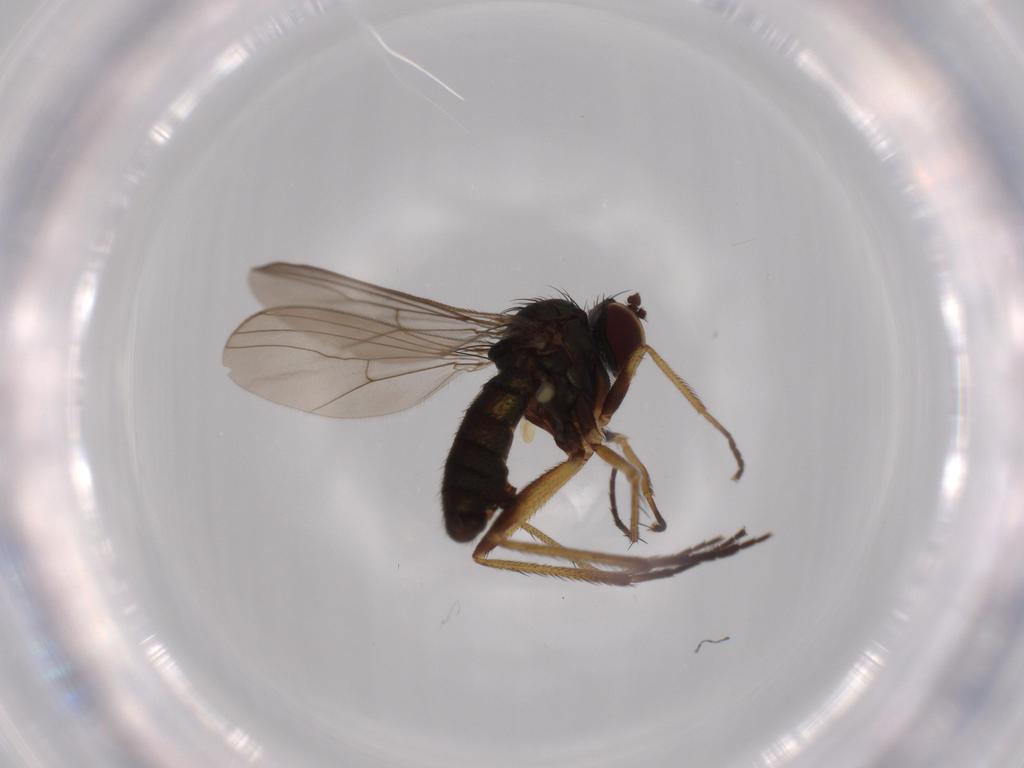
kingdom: Animalia
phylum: Arthropoda
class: Insecta
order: Diptera
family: Dolichopodidae
